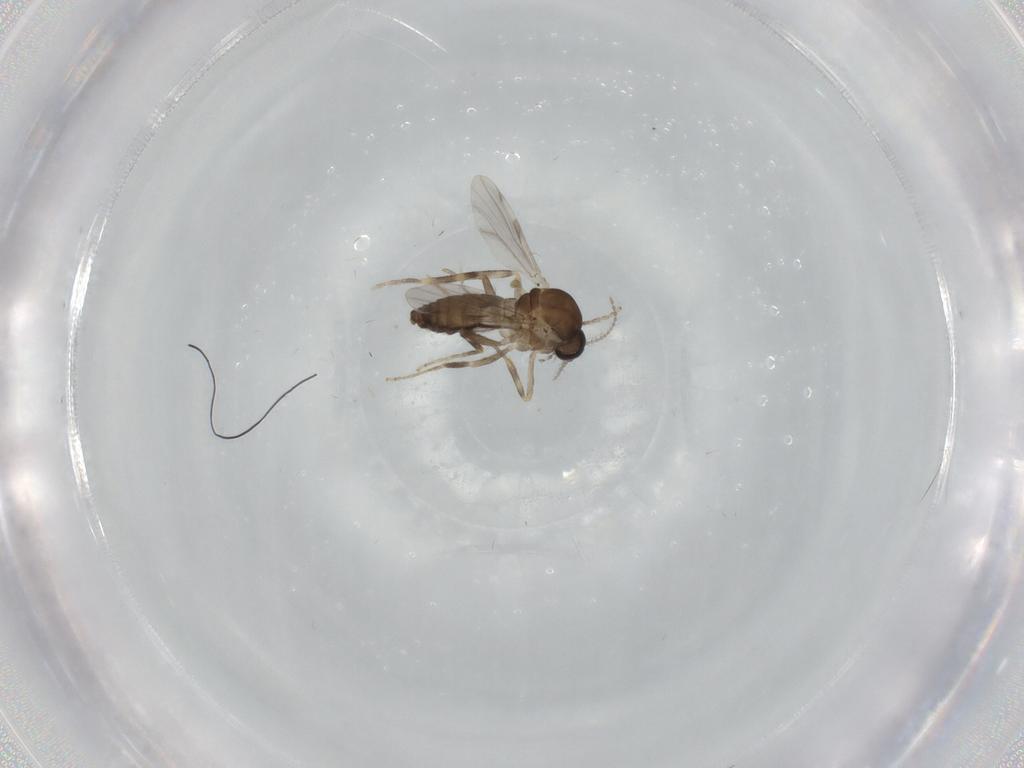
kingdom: Animalia
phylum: Arthropoda
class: Insecta
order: Diptera
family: Ceratopogonidae
